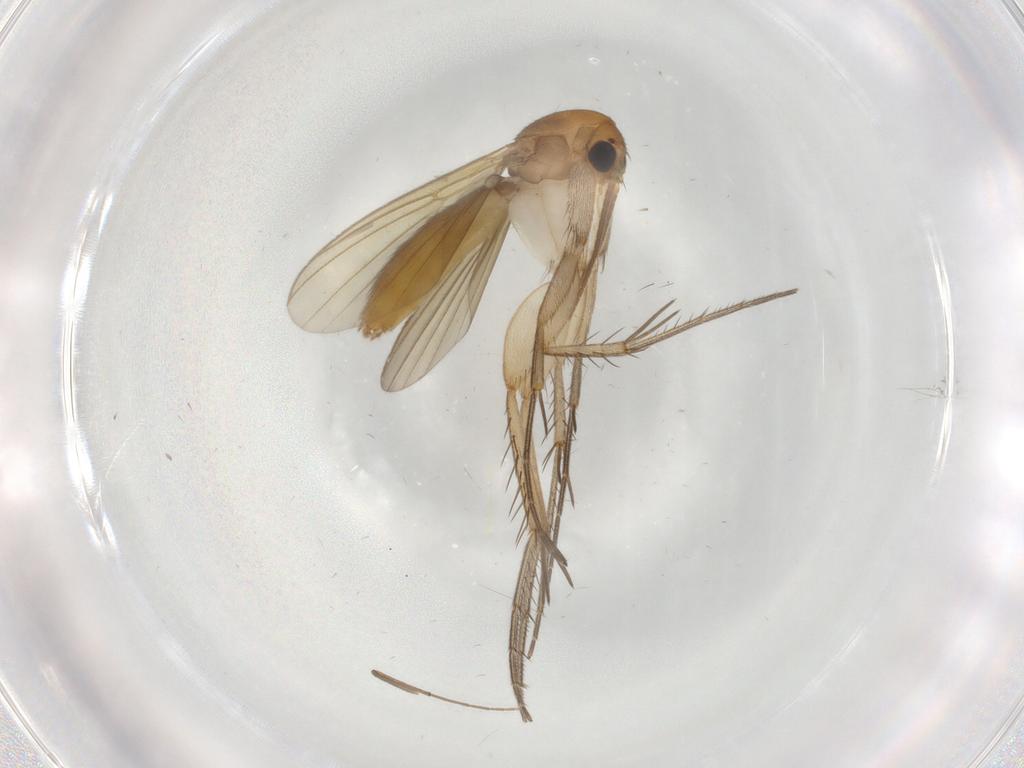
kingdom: Animalia
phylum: Arthropoda
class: Insecta
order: Diptera
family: Mycetophilidae
